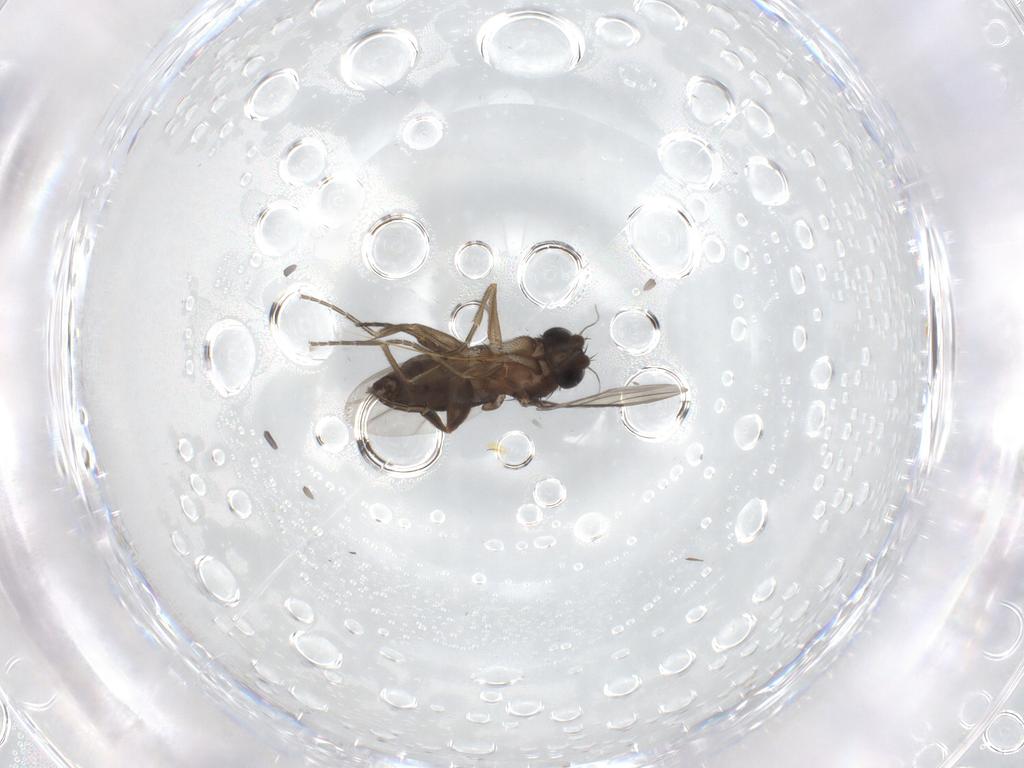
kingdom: Animalia
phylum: Arthropoda
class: Insecta
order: Diptera
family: Phoridae
